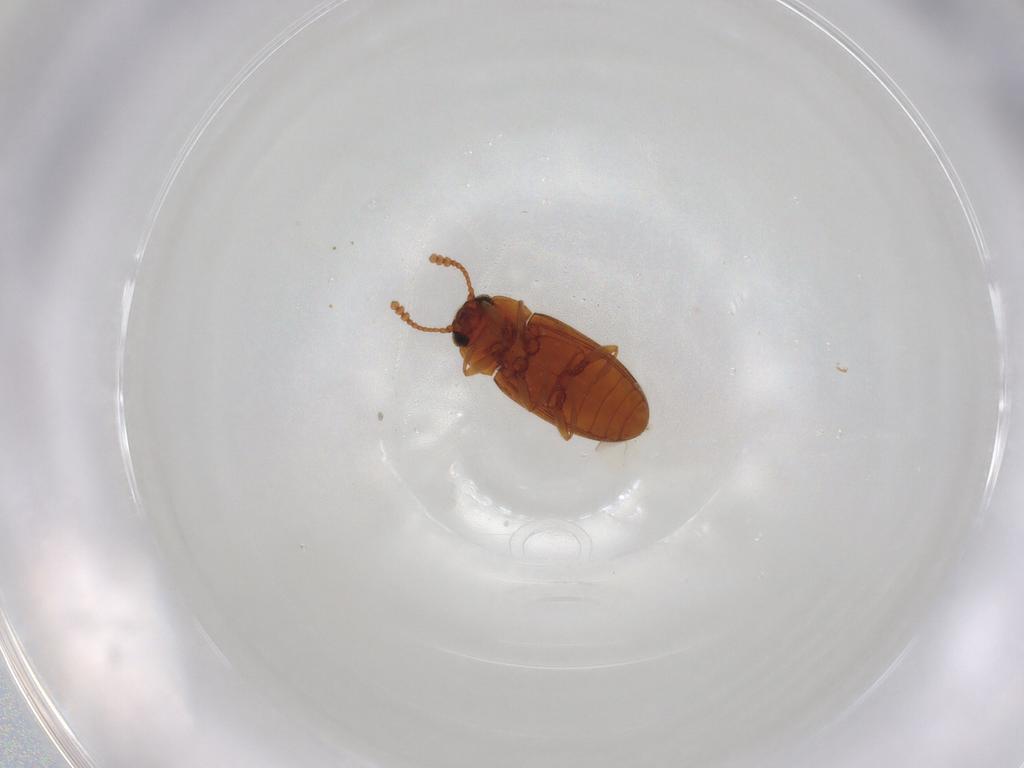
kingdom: Animalia
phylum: Arthropoda
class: Insecta
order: Coleoptera
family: Erotylidae
